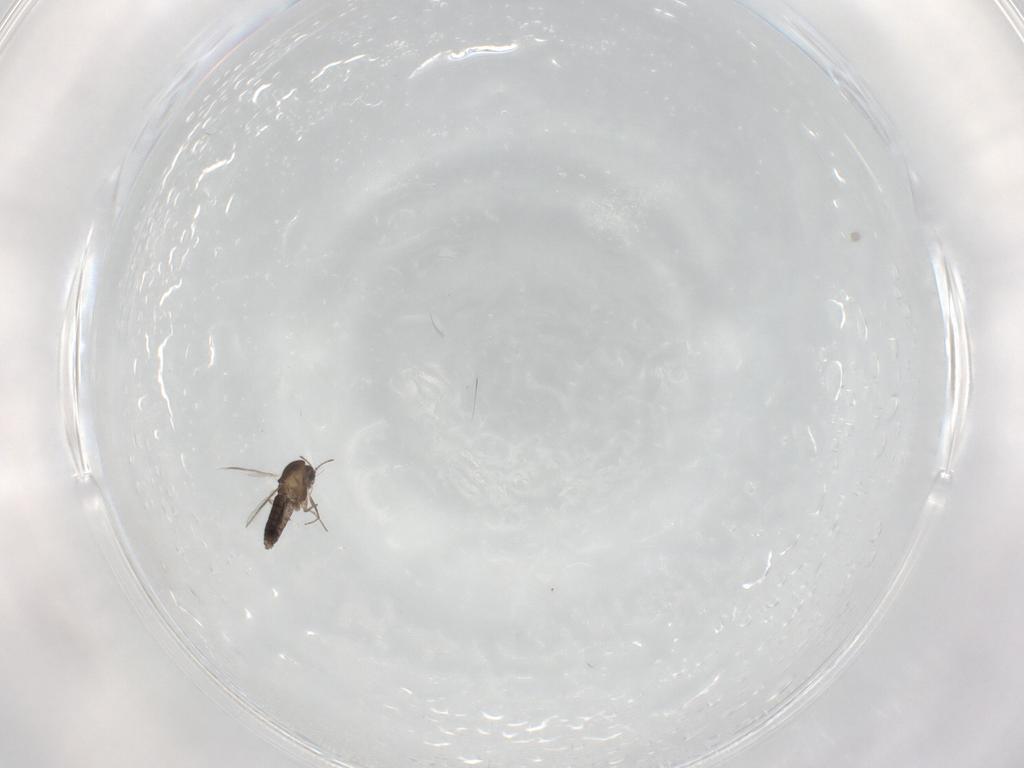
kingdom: Animalia
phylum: Arthropoda
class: Insecta
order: Diptera
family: Chironomidae
